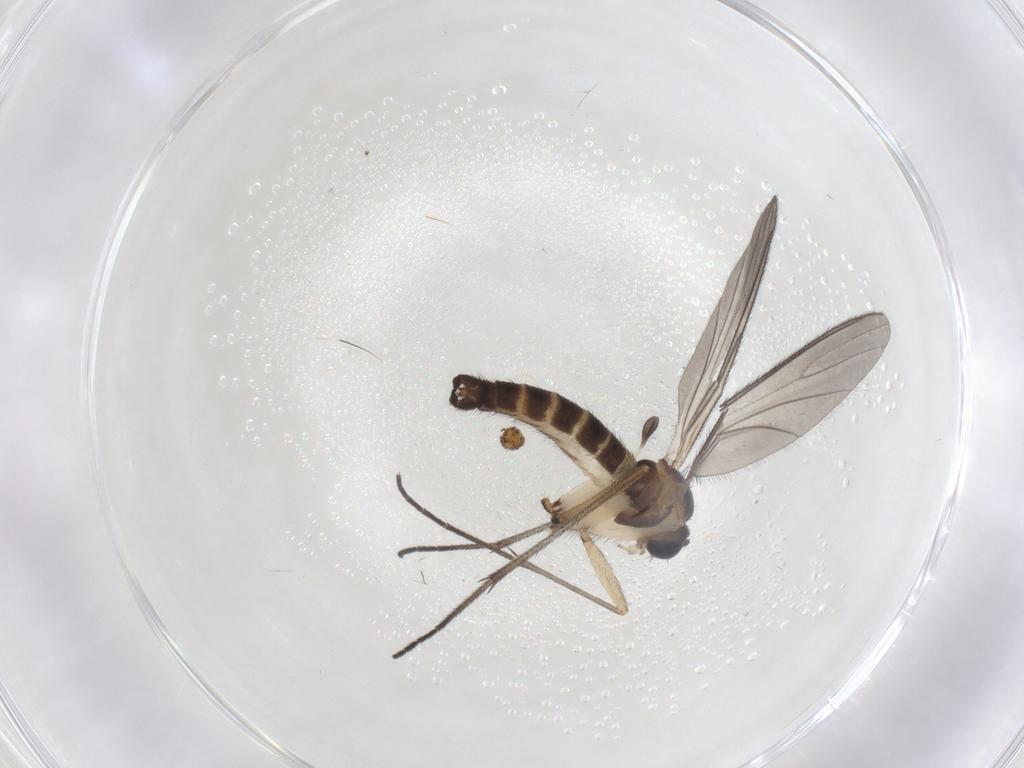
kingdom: Animalia
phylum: Arthropoda
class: Insecta
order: Diptera
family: Sciaridae
